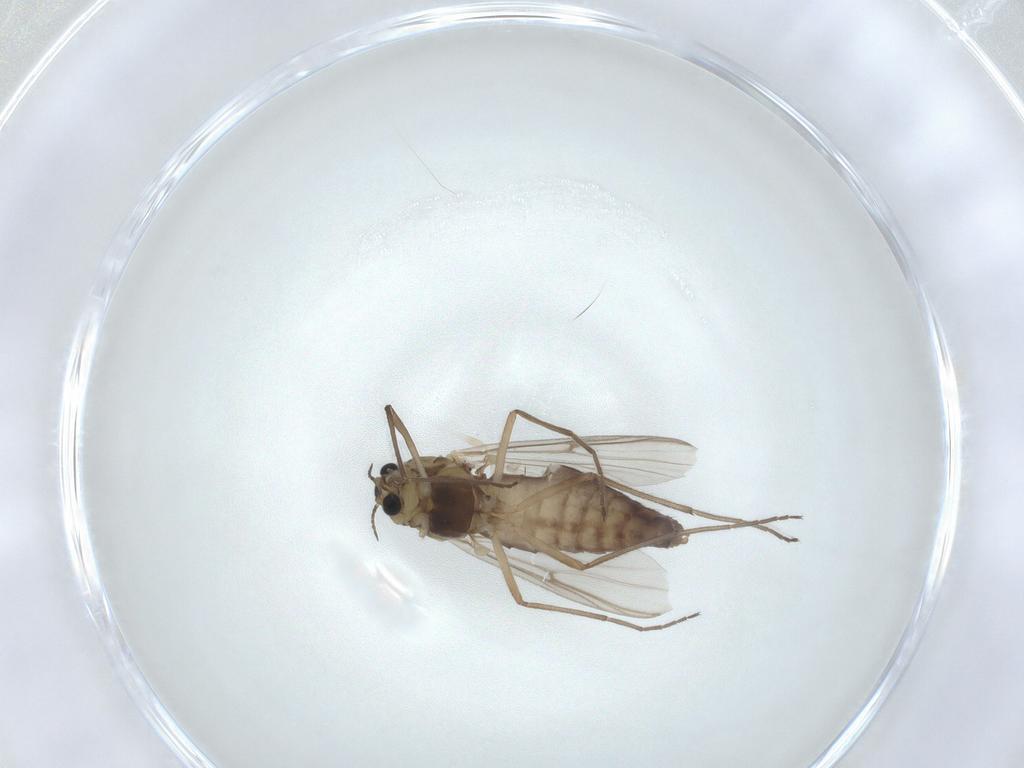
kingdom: Animalia
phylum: Arthropoda
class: Insecta
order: Diptera
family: Chironomidae
